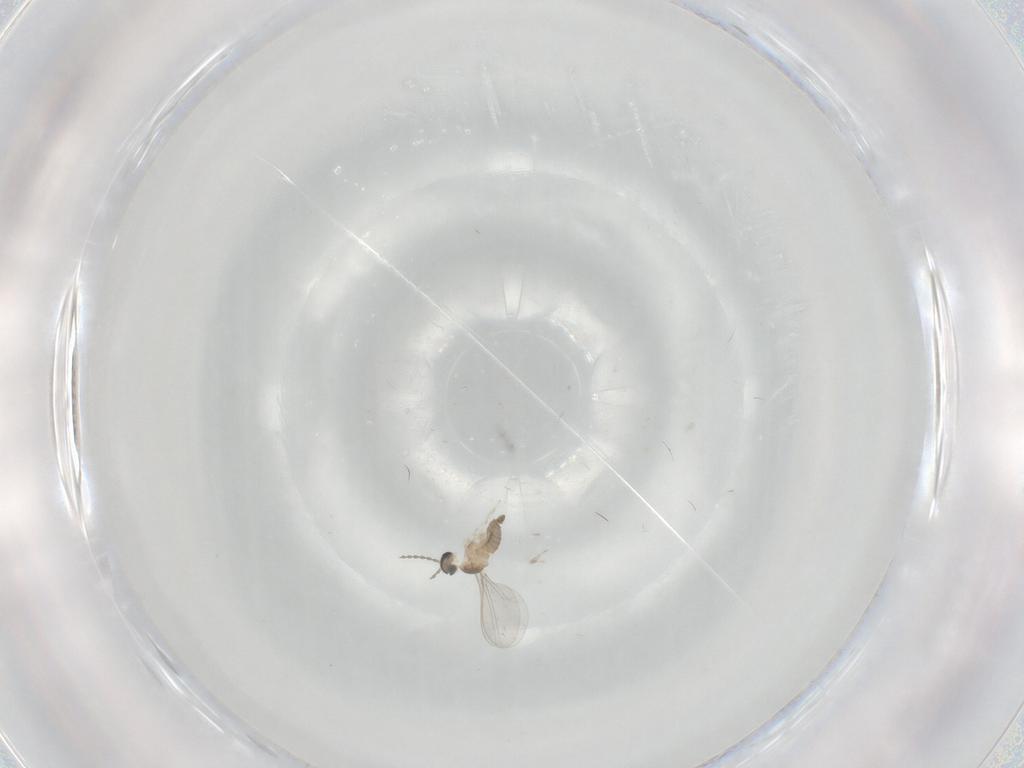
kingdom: Animalia
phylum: Arthropoda
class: Insecta
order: Diptera
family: Cecidomyiidae
